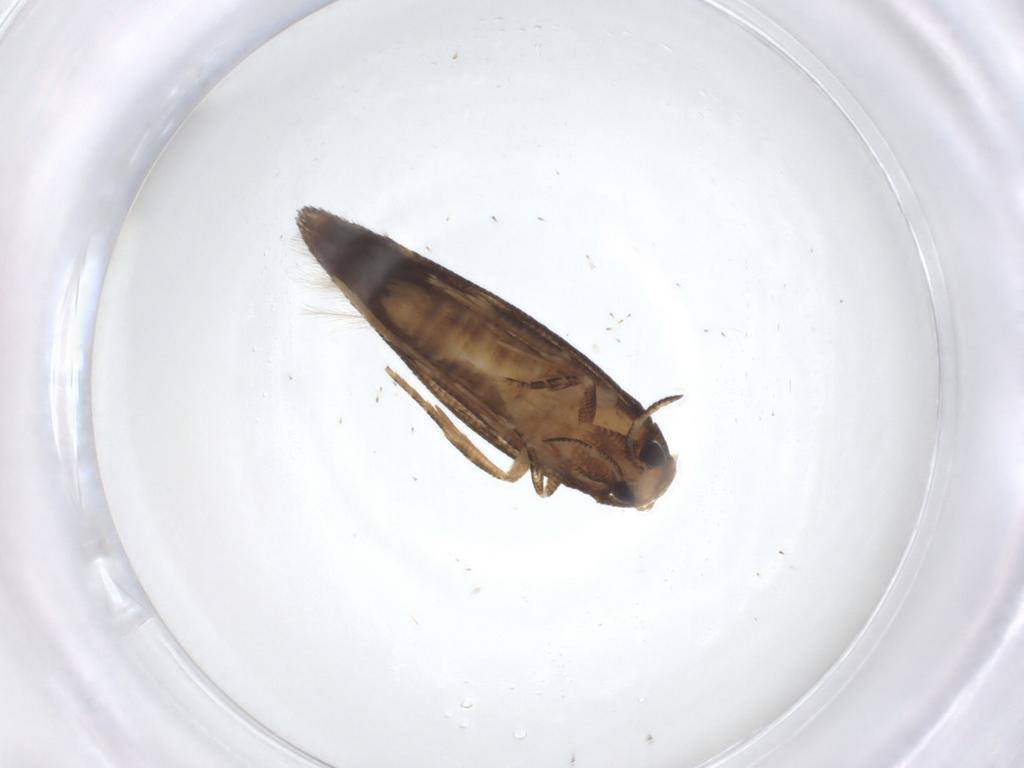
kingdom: Animalia
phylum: Arthropoda
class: Insecta
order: Lepidoptera
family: Gelechiidae
